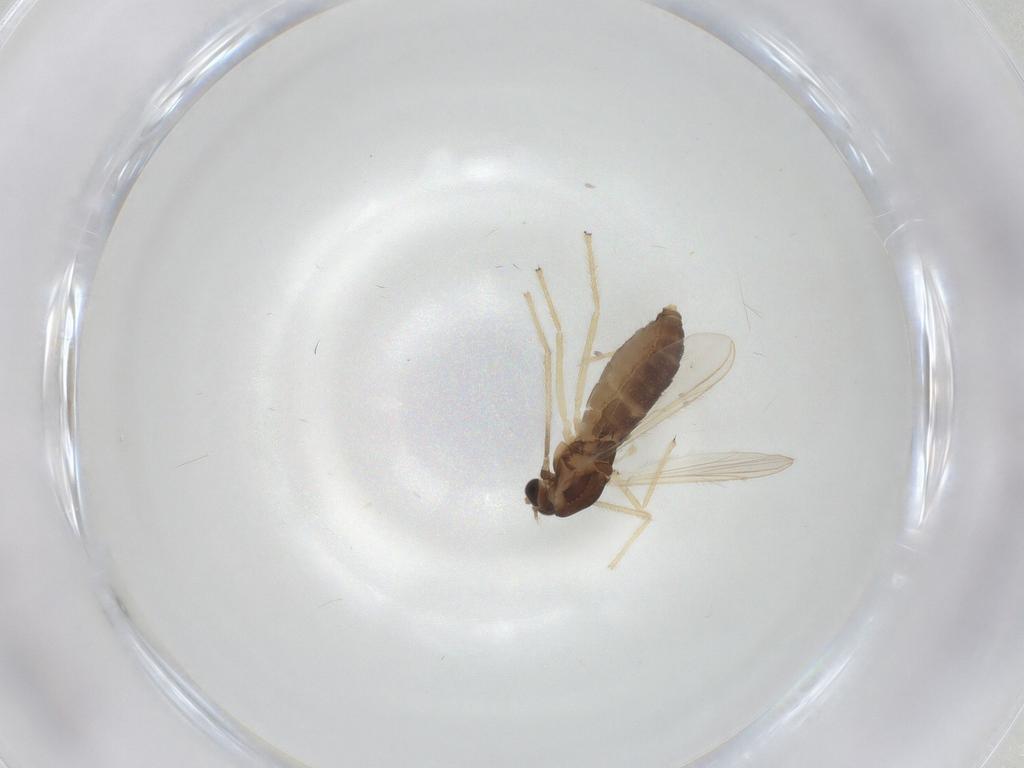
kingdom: Animalia
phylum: Arthropoda
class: Insecta
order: Diptera
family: Chironomidae
